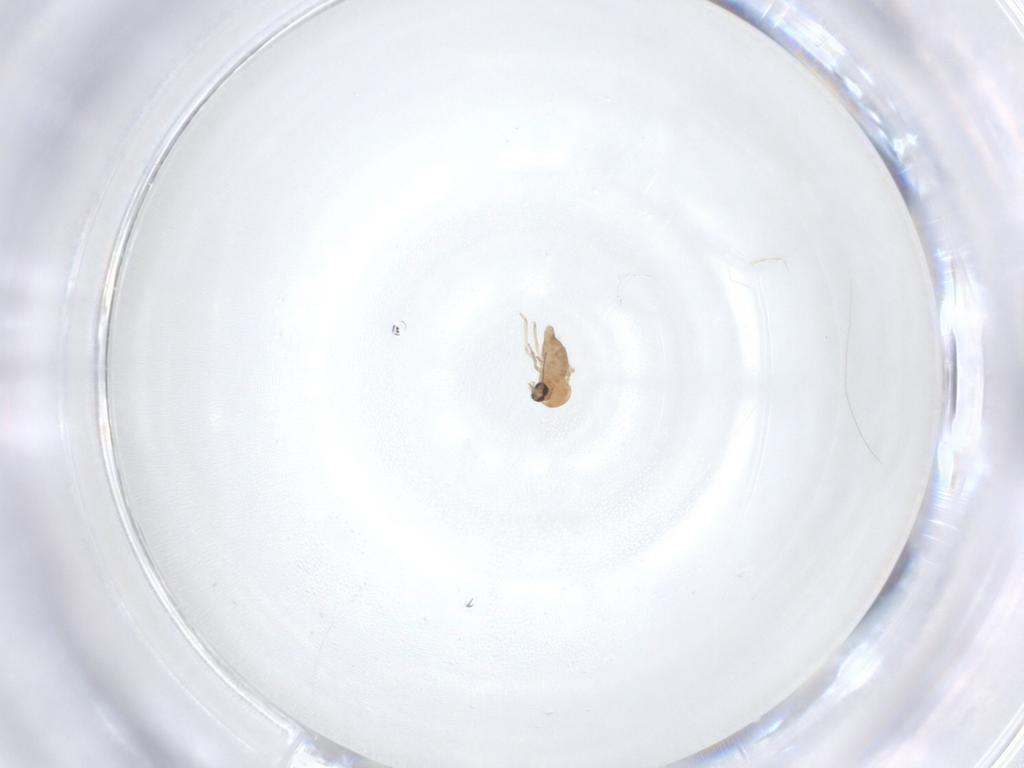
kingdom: Animalia
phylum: Arthropoda
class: Insecta
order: Diptera
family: Ceratopogonidae
